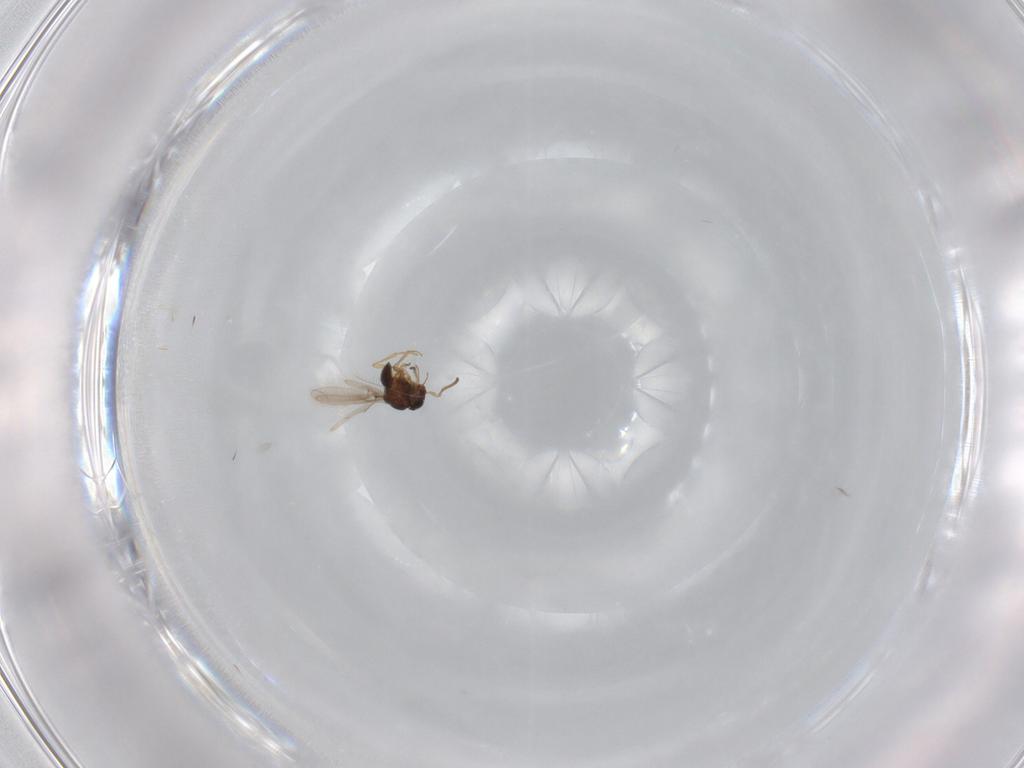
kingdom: Animalia
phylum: Arthropoda
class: Insecta
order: Hymenoptera
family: Scelionidae
